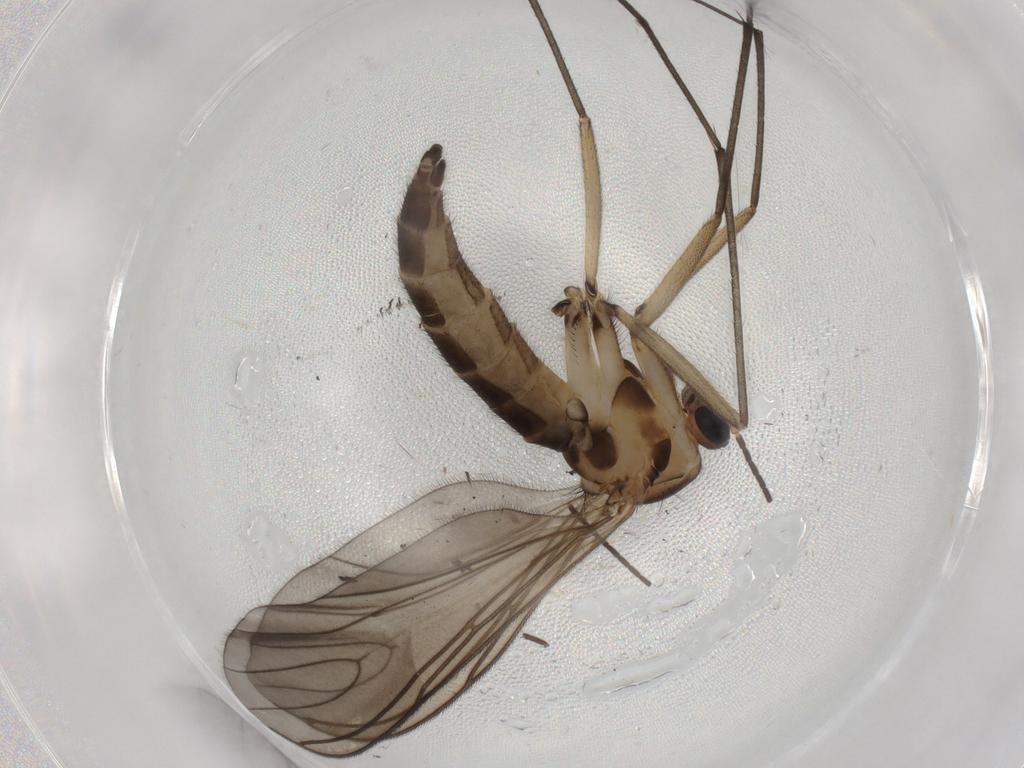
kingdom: Animalia
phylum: Arthropoda
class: Insecta
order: Diptera
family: Sciaridae
